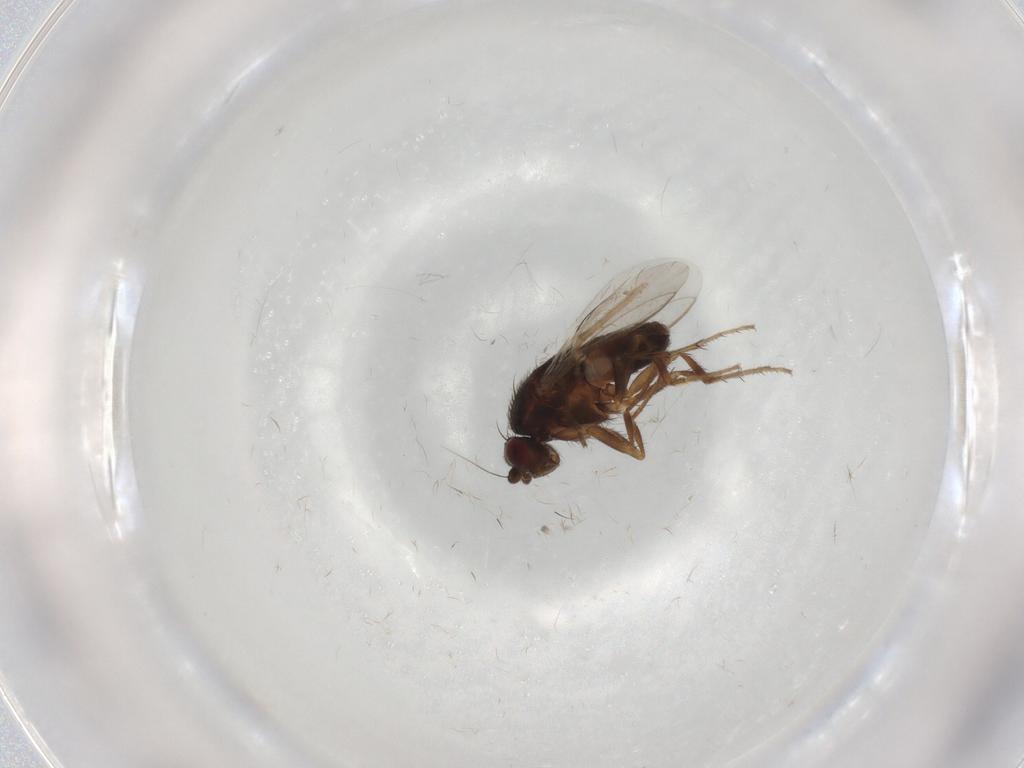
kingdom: Animalia
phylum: Arthropoda
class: Insecta
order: Diptera
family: Sphaeroceridae
